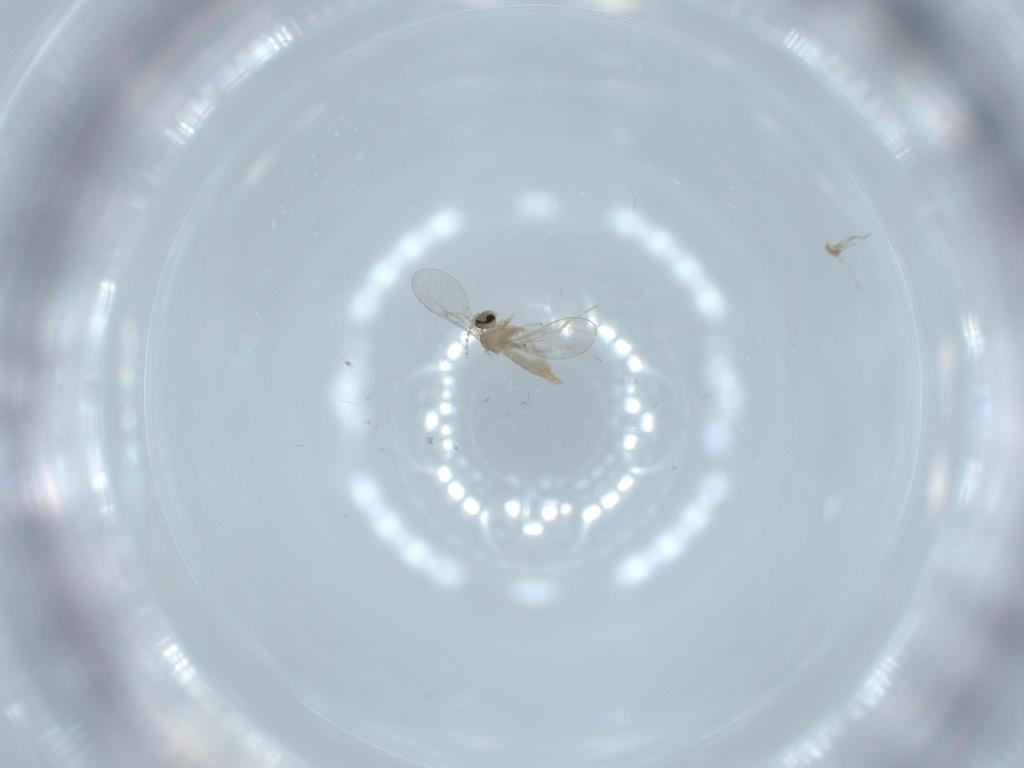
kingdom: Animalia
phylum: Arthropoda
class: Insecta
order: Diptera
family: Cecidomyiidae
